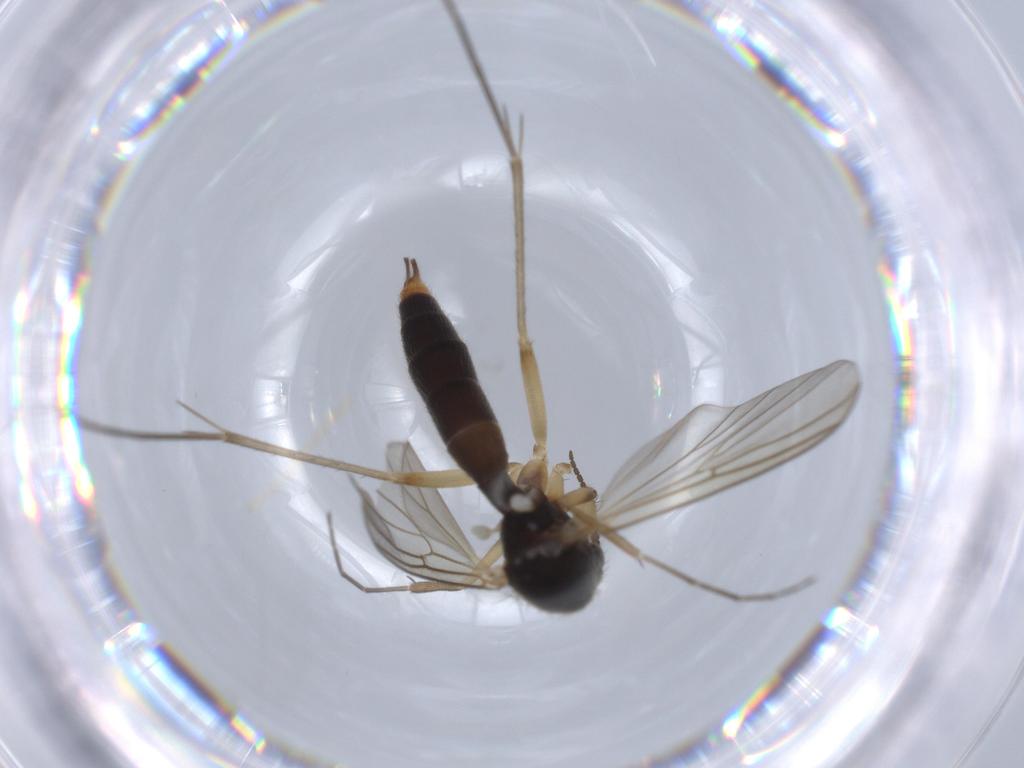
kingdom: Animalia
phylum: Arthropoda
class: Insecta
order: Diptera
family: Sciaridae
